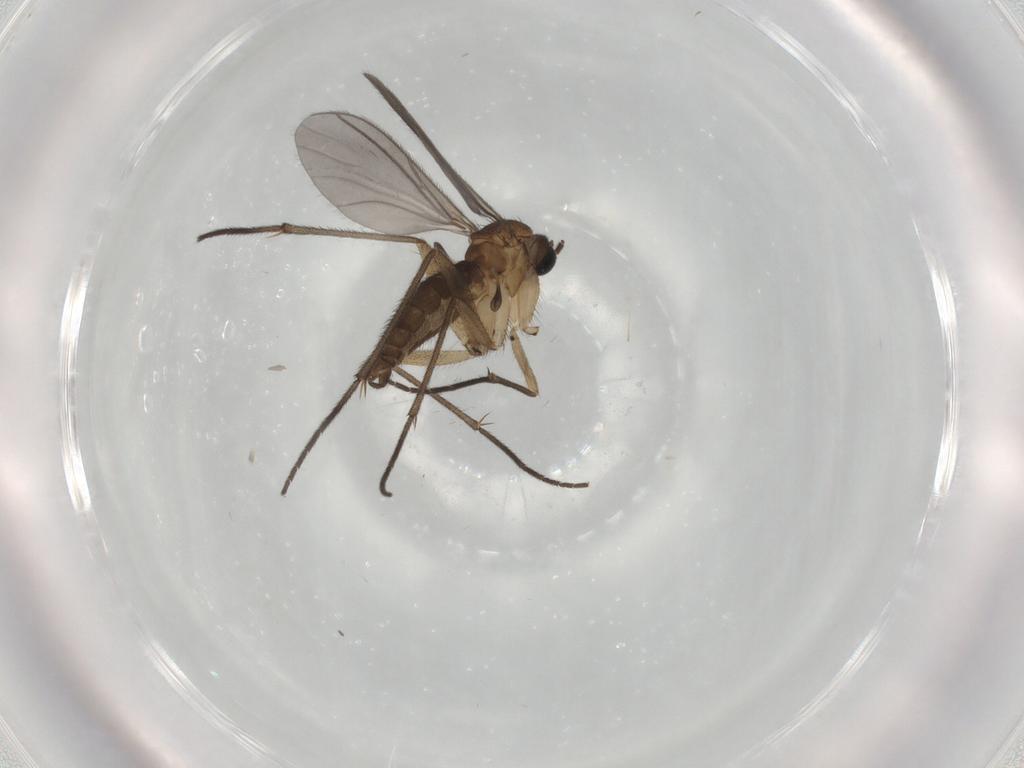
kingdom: Animalia
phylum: Arthropoda
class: Insecta
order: Diptera
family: Sciaridae
